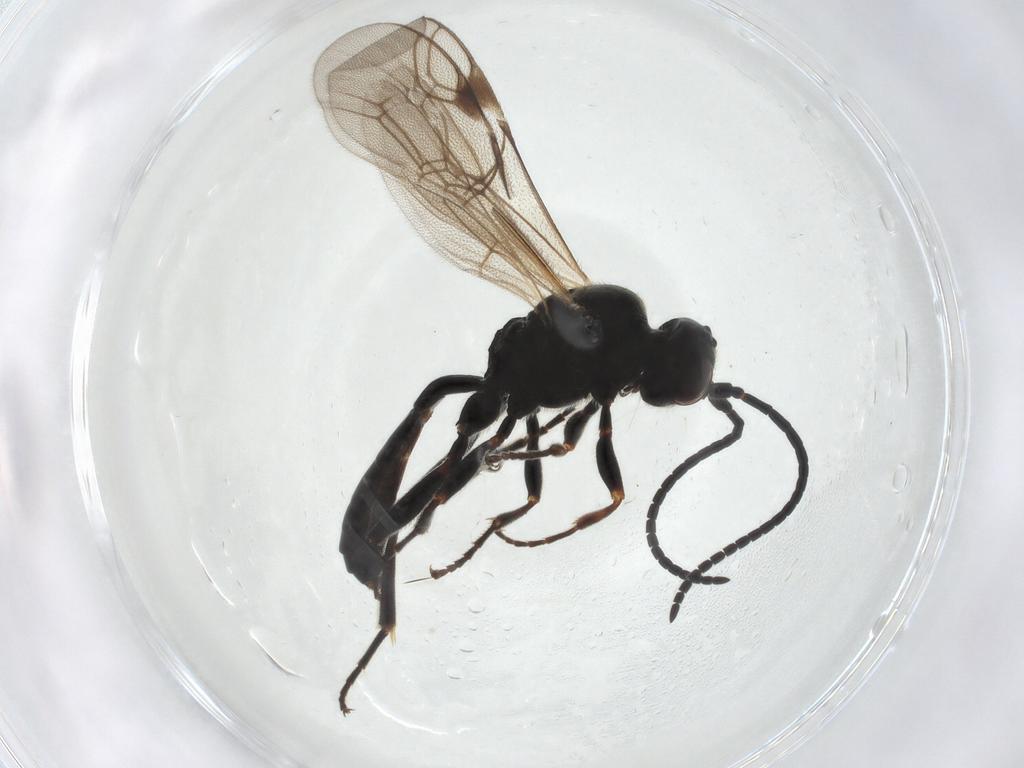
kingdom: Animalia
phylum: Arthropoda
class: Insecta
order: Hymenoptera
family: Ichneumonidae
